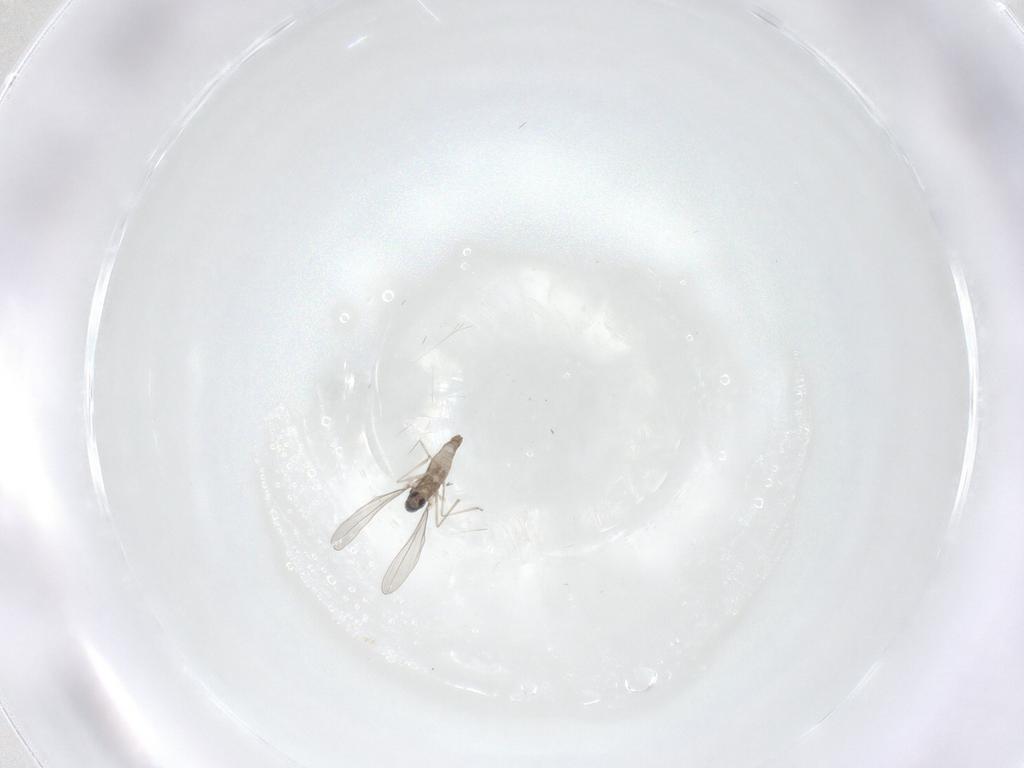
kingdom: Animalia
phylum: Arthropoda
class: Insecta
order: Diptera
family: Cecidomyiidae
